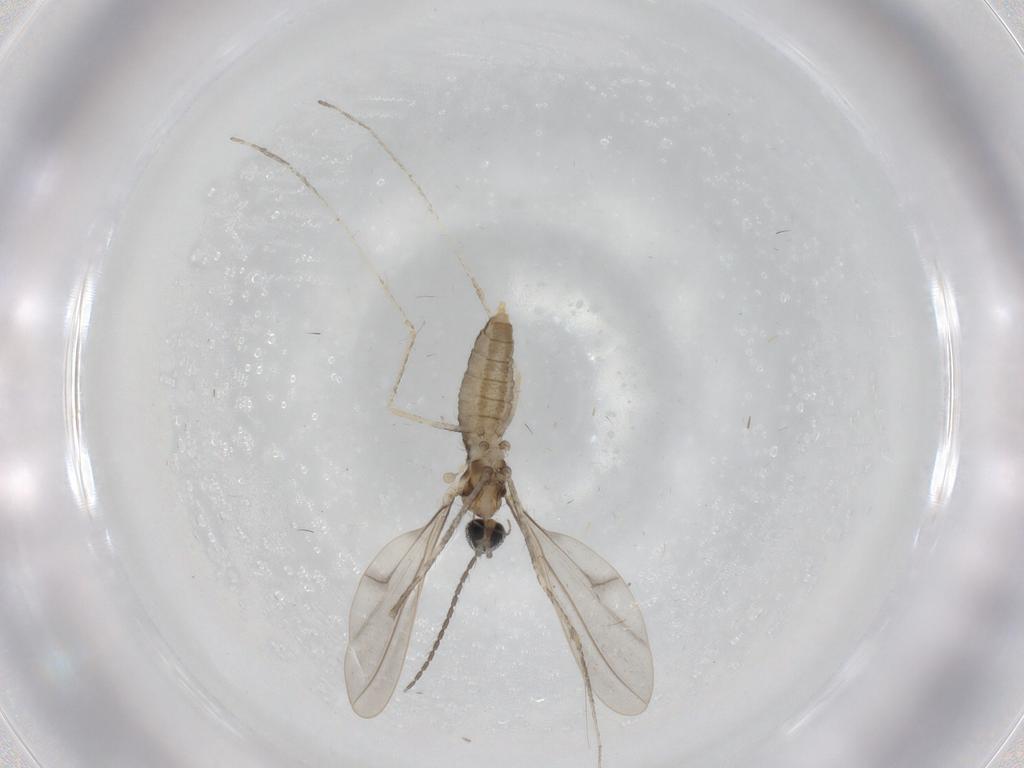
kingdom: Animalia
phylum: Arthropoda
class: Insecta
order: Diptera
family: Cecidomyiidae
